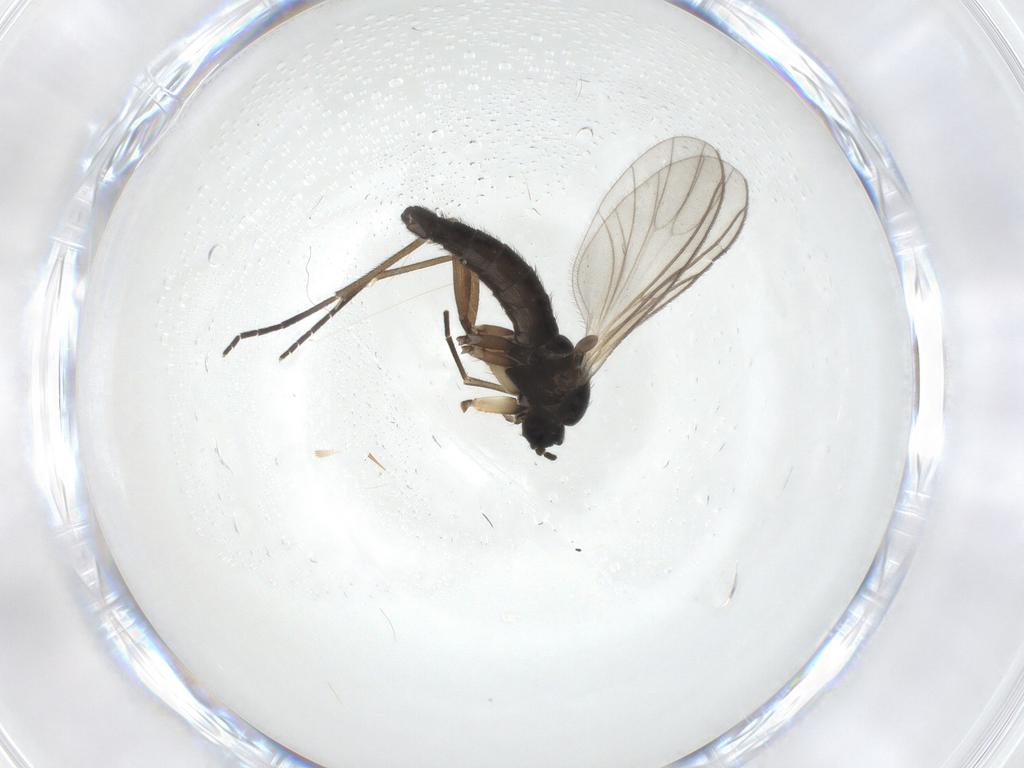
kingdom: Animalia
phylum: Arthropoda
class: Insecta
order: Diptera
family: Sciaridae
